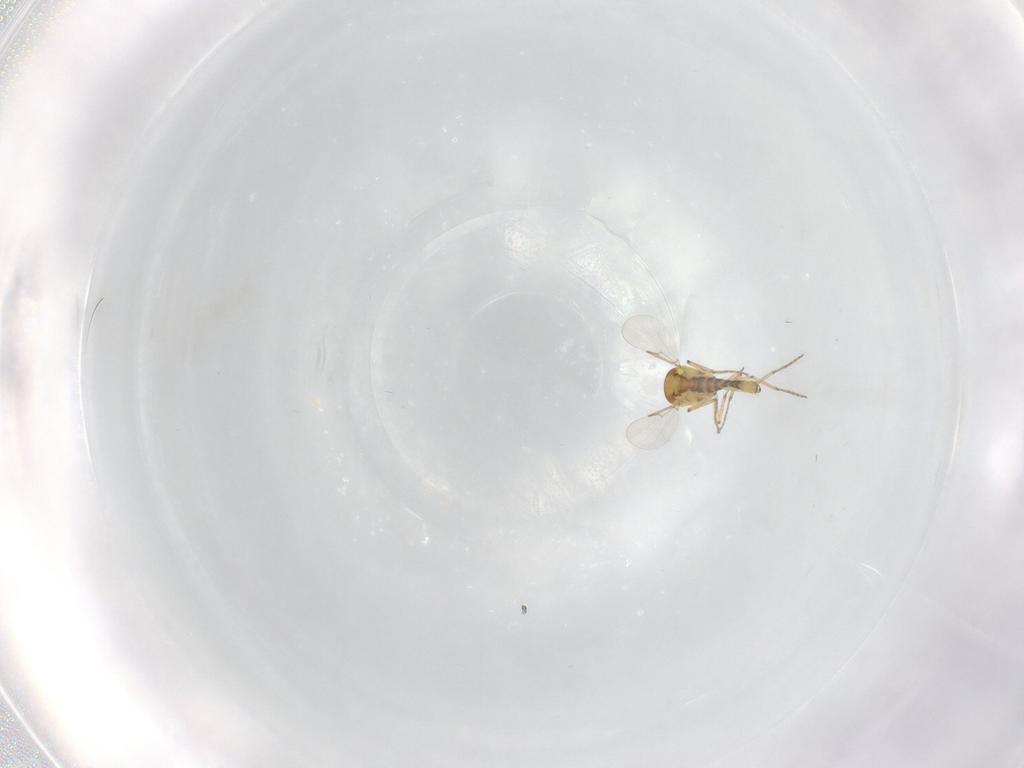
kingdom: Animalia
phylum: Arthropoda
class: Insecta
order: Diptera
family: Ceratopogonidae
